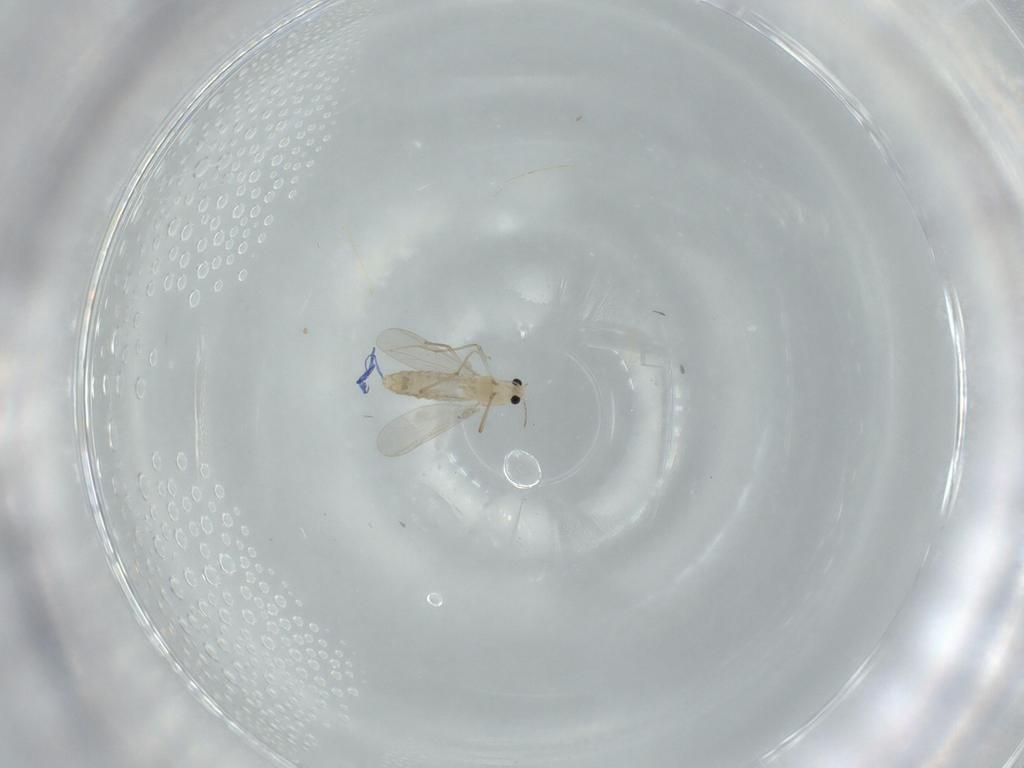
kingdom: Animalia
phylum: Arthropoda
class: Insecta
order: Diptera
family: Chironomidae
